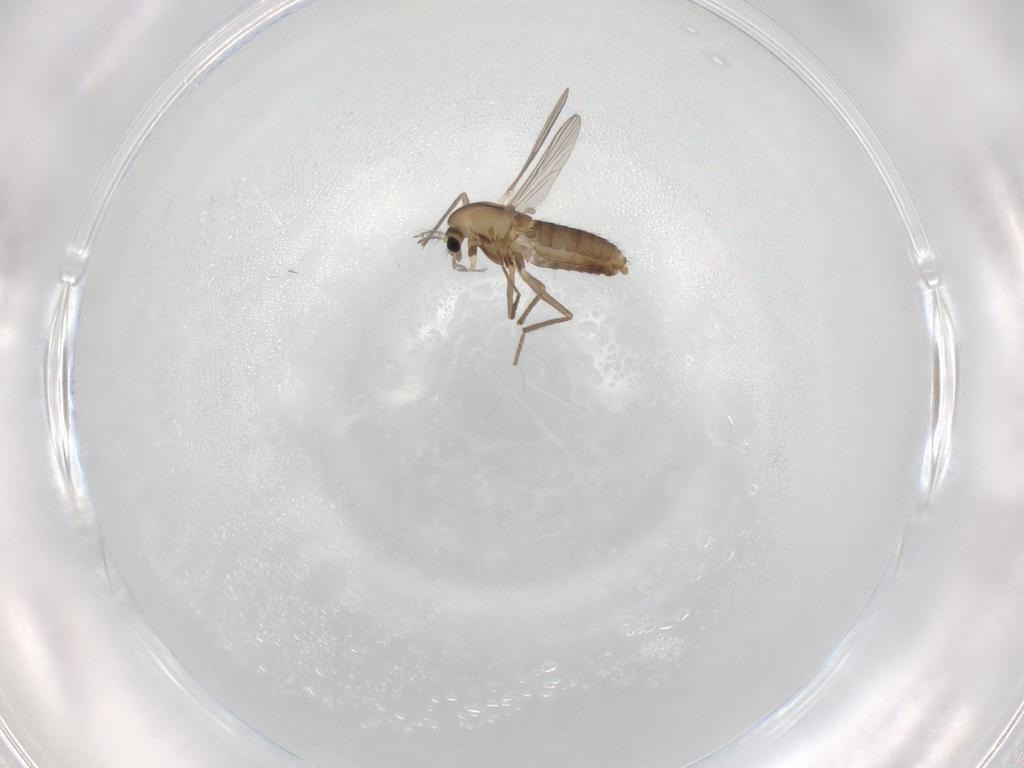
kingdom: Animalia
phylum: Arthropoda
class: Insecta
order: Diptera
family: Chironomidae
